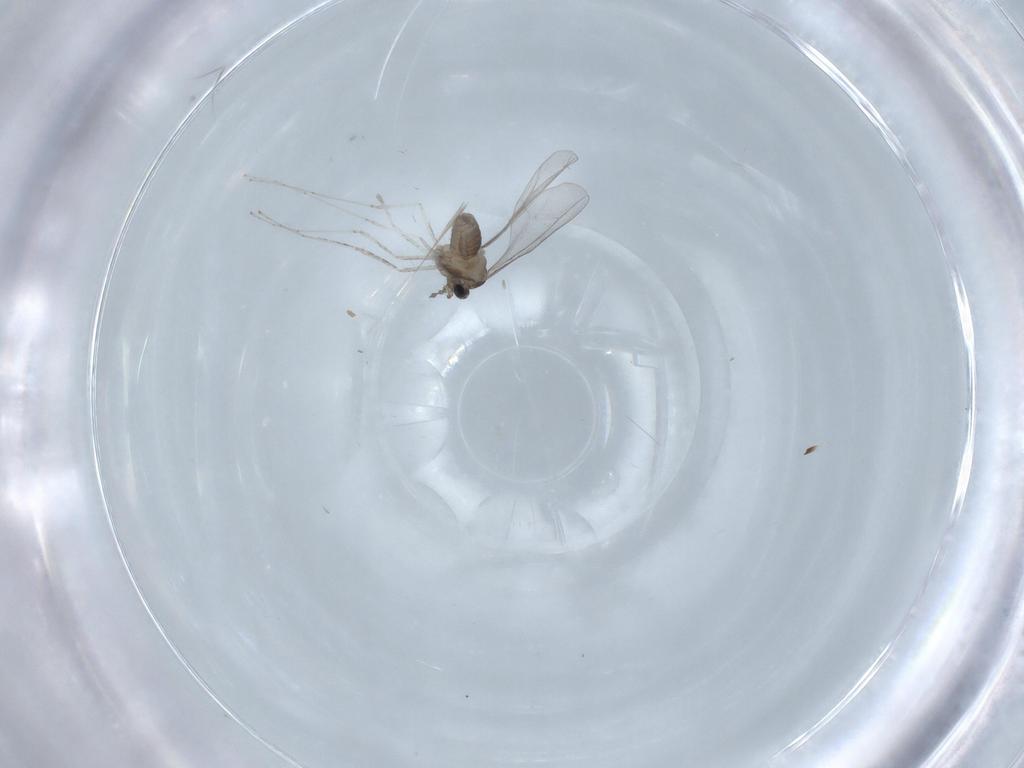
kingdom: Animalia
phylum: Arthropoda
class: Insecta
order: Diptera
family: Cecidomyiidae
